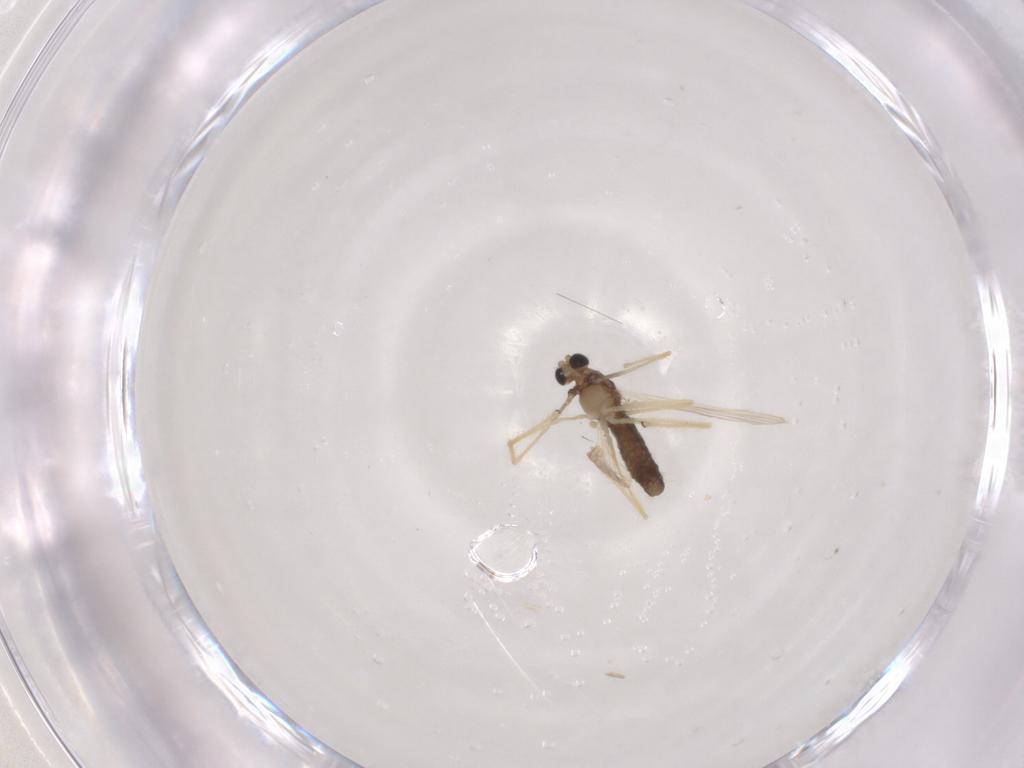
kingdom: Animalia
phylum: Arthropoda
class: Insecta
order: Diptera
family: Chironomidae
